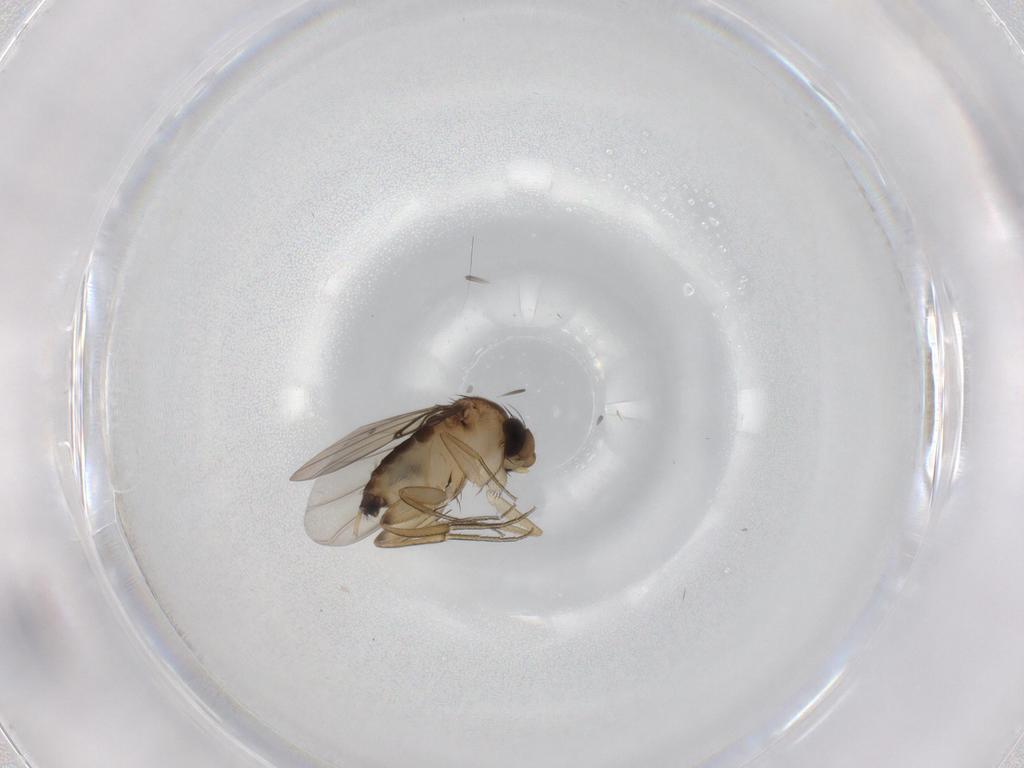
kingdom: Animalia
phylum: Arthropoda
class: Insecta
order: Diptera
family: Phoridae
